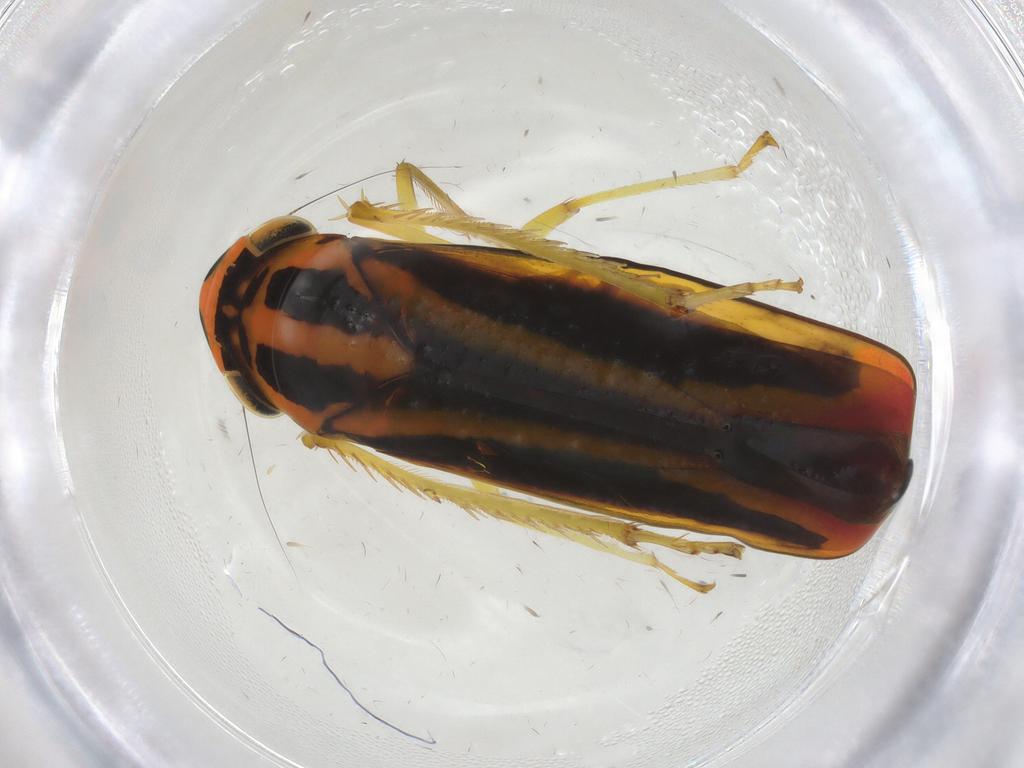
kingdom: Animalia
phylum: Arthropoda
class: Insecta
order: Hemiptera
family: Cicadellidae
